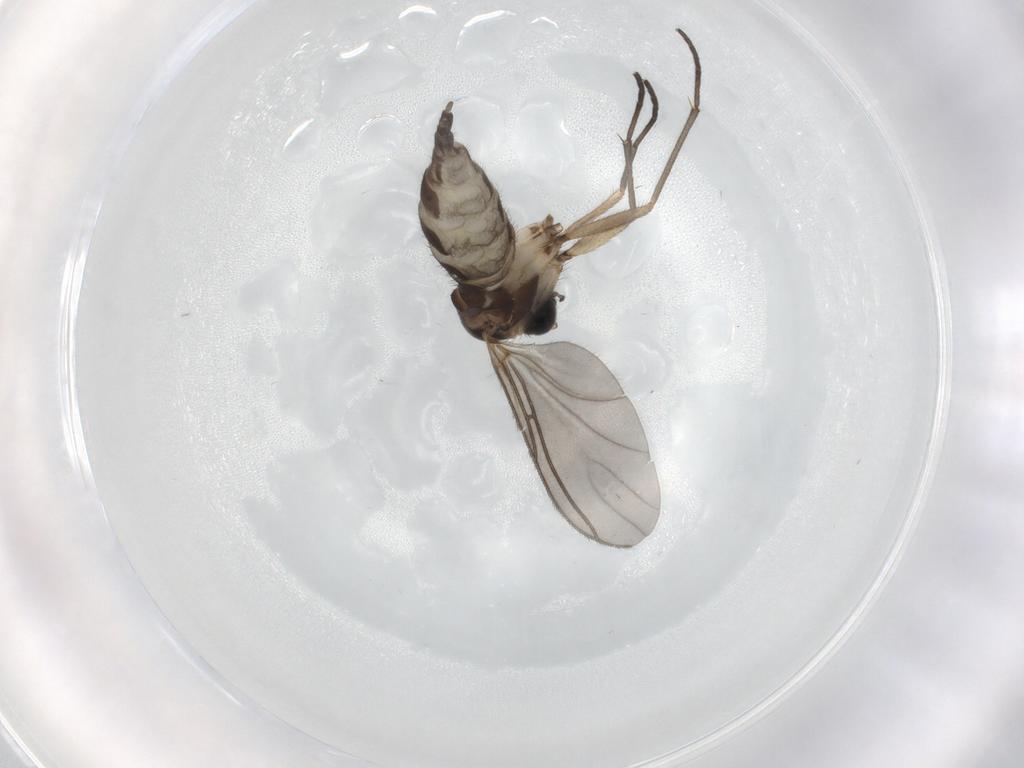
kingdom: Animalia
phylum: Arthropoda
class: Insecta
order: Diptera
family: Sciaridae
